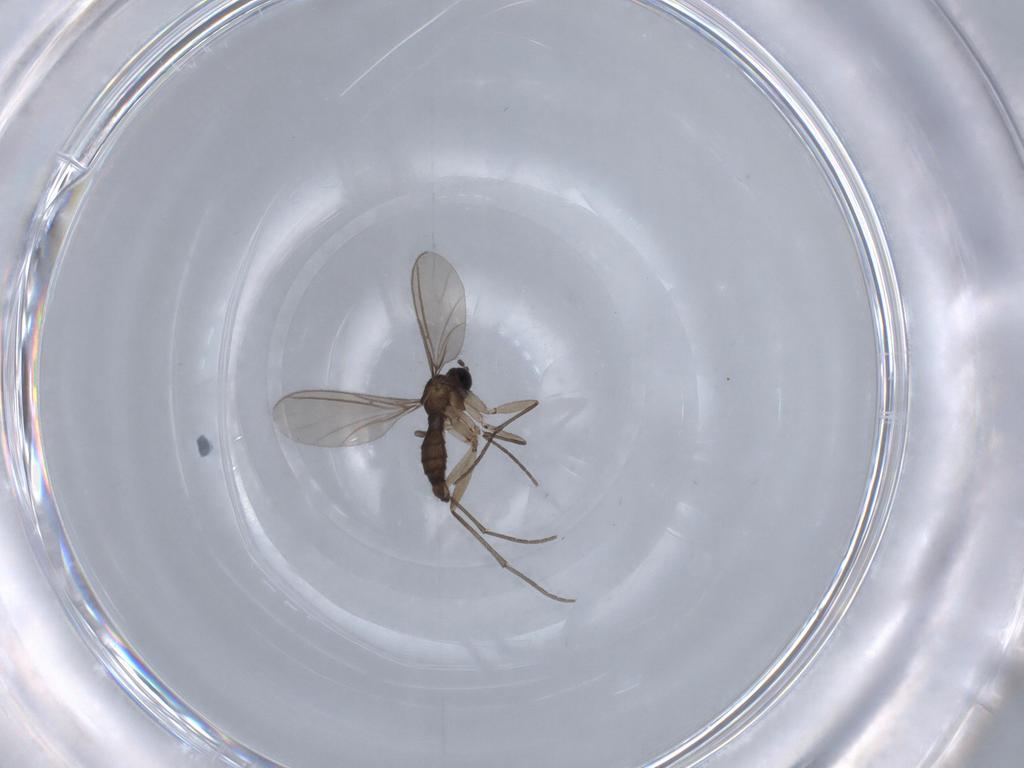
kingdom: Animalia
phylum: Arthropoda
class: Insecta
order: Diptera
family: Sciaridae
